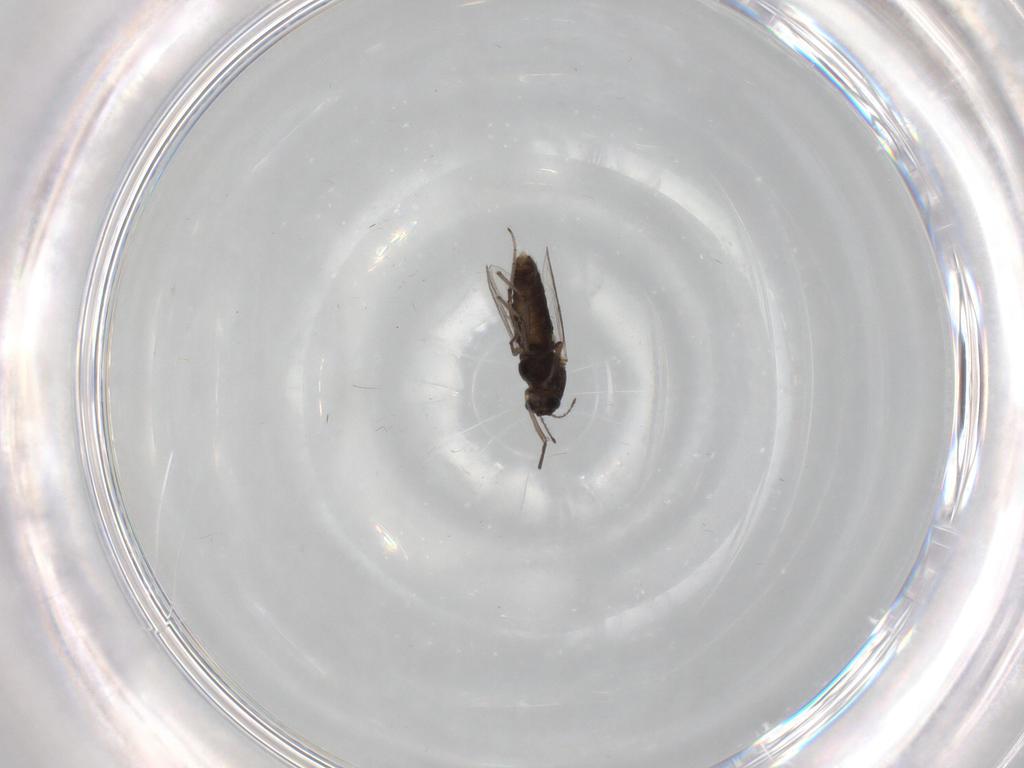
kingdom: Animalia
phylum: Arthropoda
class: Insecta
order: Diptera
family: Chironomidae
